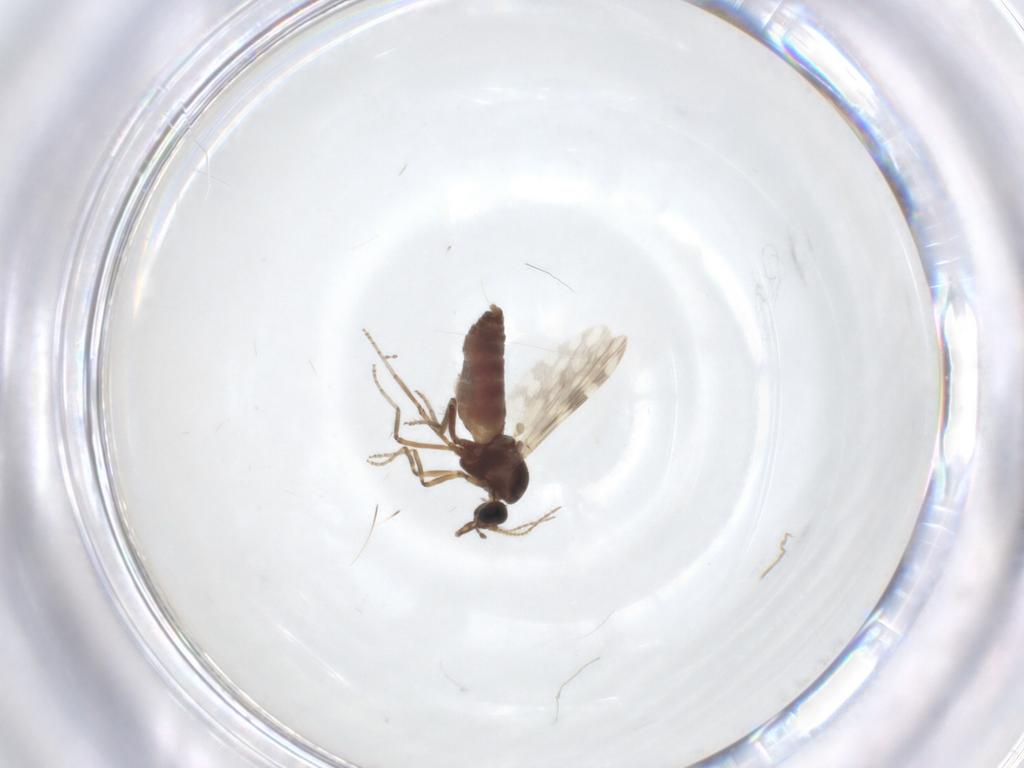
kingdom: Animalia
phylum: Arthropoda
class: Insecta
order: Diptera
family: Ceratopogonidae
